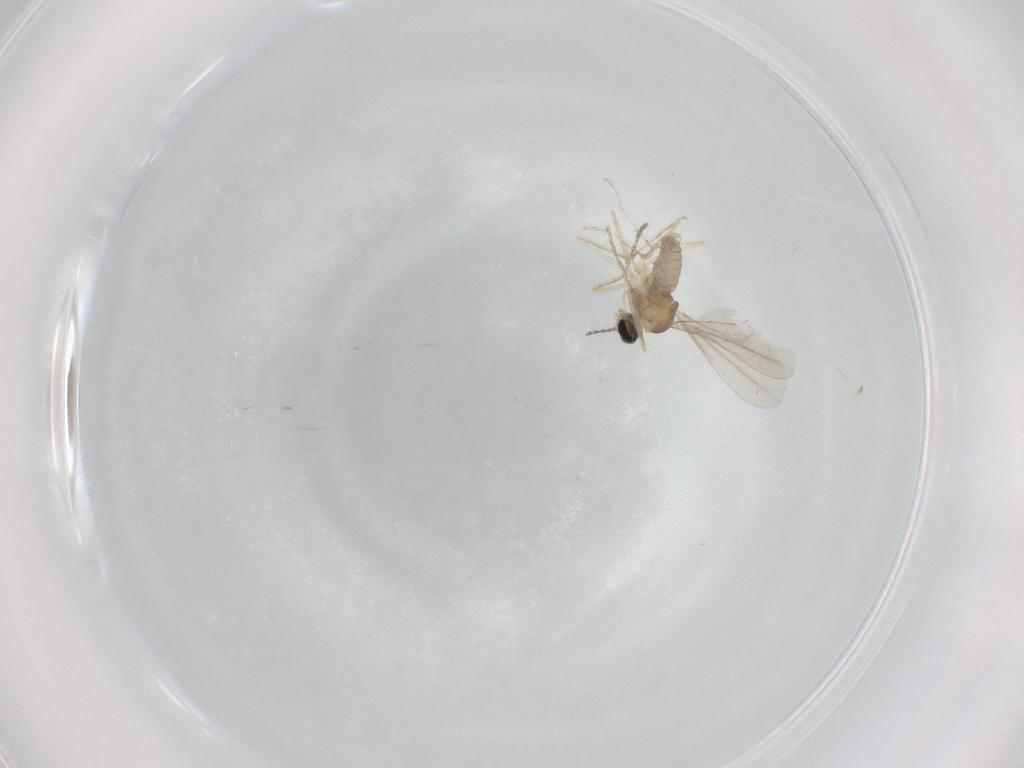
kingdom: Animalia
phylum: Arthropoda
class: Insecta
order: Diptera
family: Cecidomyiidae
